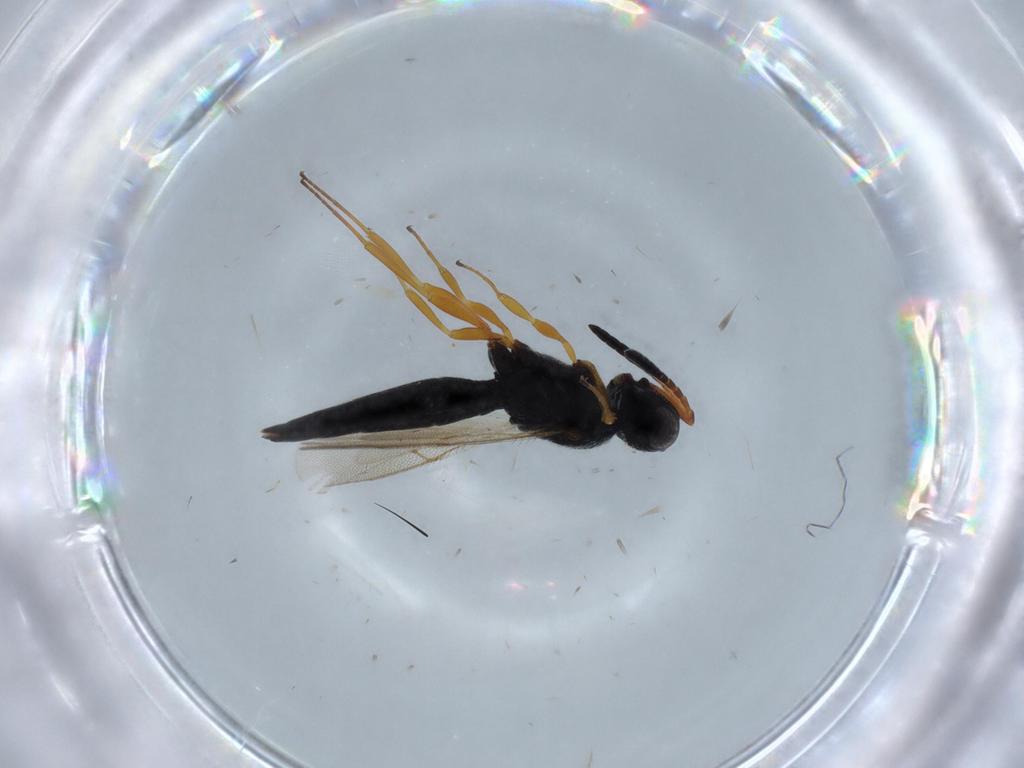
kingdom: Animalia
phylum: Arthropoda
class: Insecta
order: Hymenoptera
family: Scelionidae
